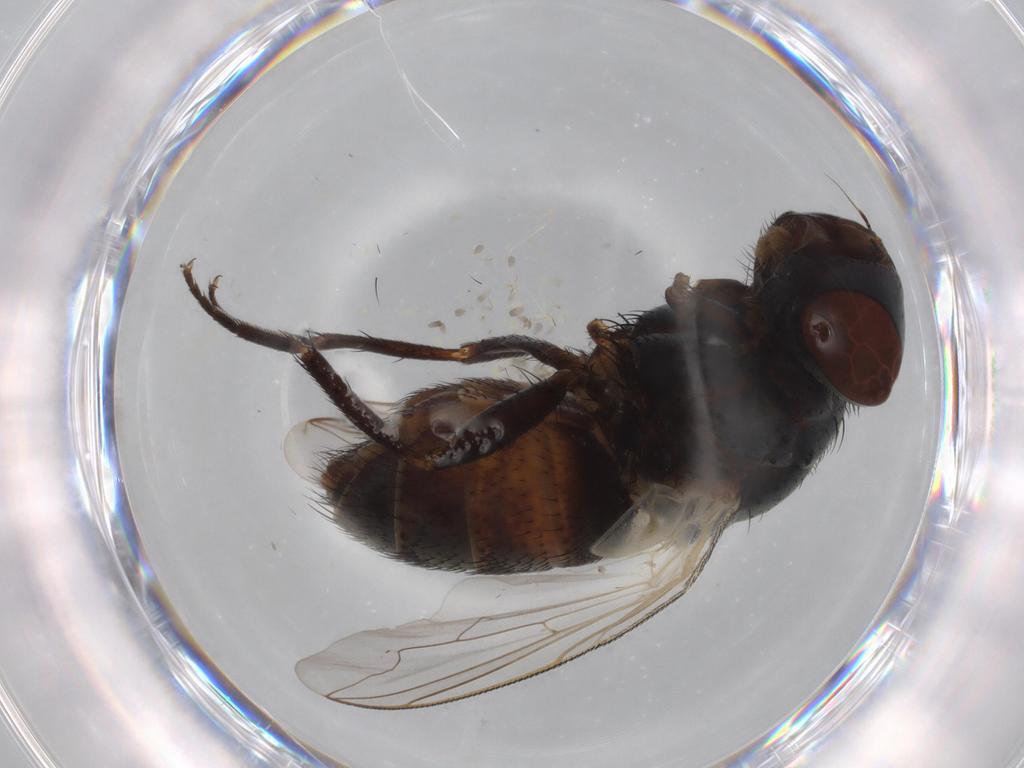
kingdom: Animalia
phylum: Arthropoda
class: Insecta
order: Diptera
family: Sarcophagidae
